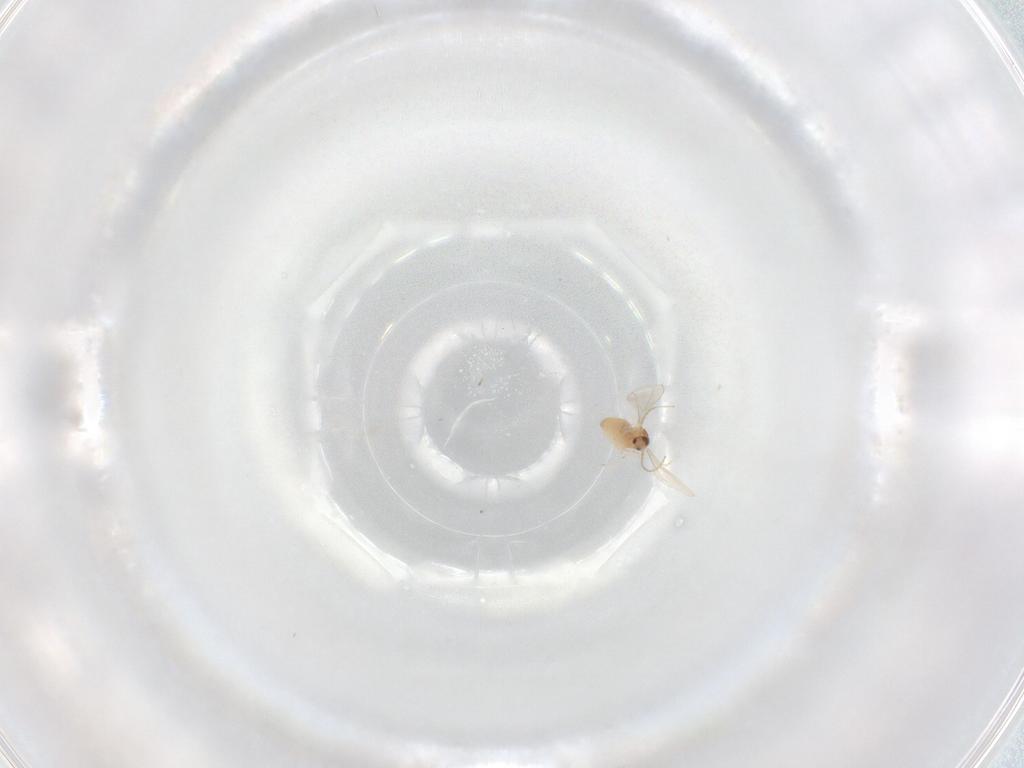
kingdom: Animalia
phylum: Arthropoda
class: Insecta
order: Diptera
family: Cecidomyiidae
